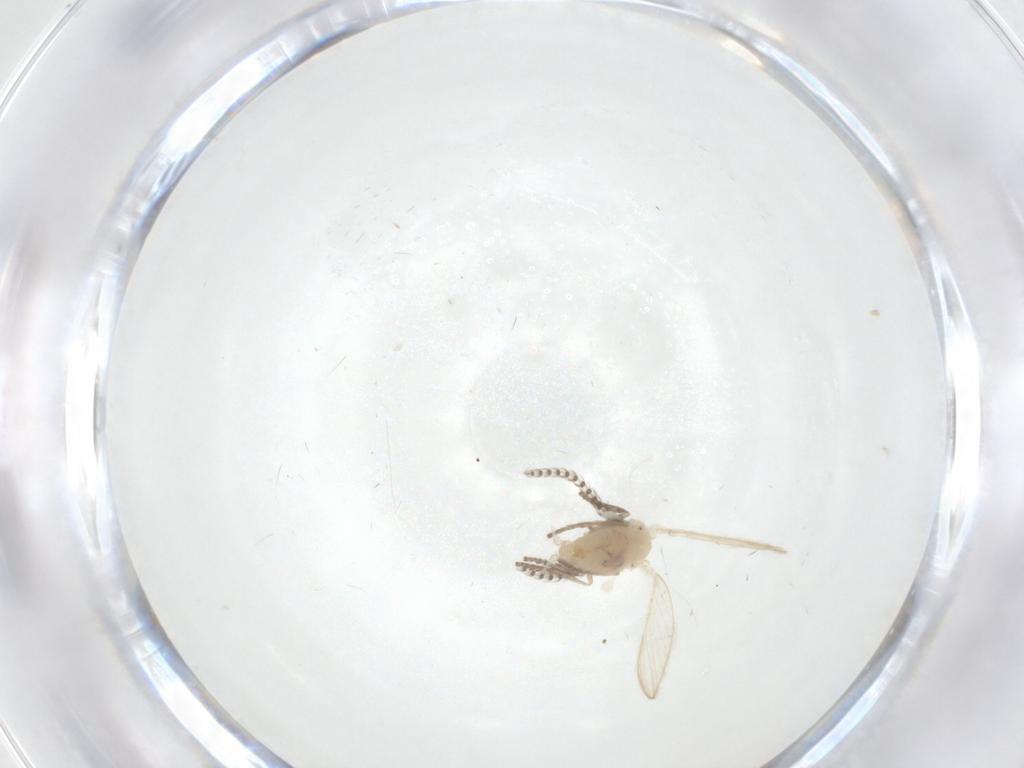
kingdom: Animalia
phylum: Arthropoda
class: Insecta
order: Diptera
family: Psychodidae
